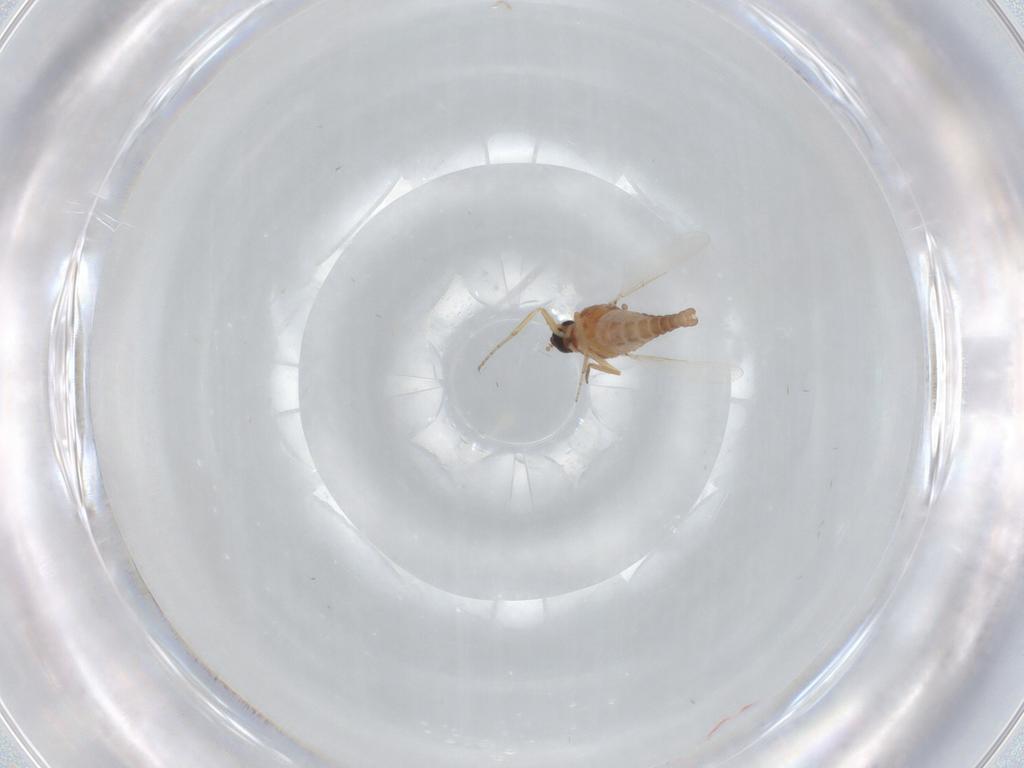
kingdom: Animalia
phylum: Arthropoda
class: Insecta
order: Diptera
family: Ceratopogonidae
